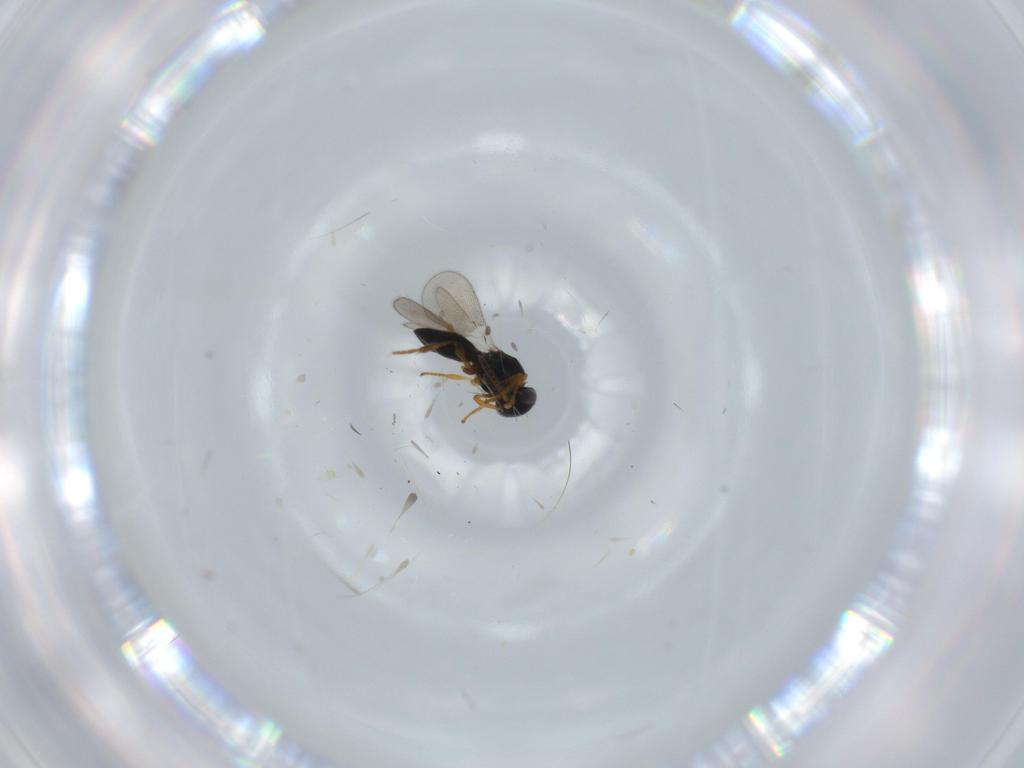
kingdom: Animalia
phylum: Arthropoda
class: Insecta
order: Hymenoptera
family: Platygastridae
